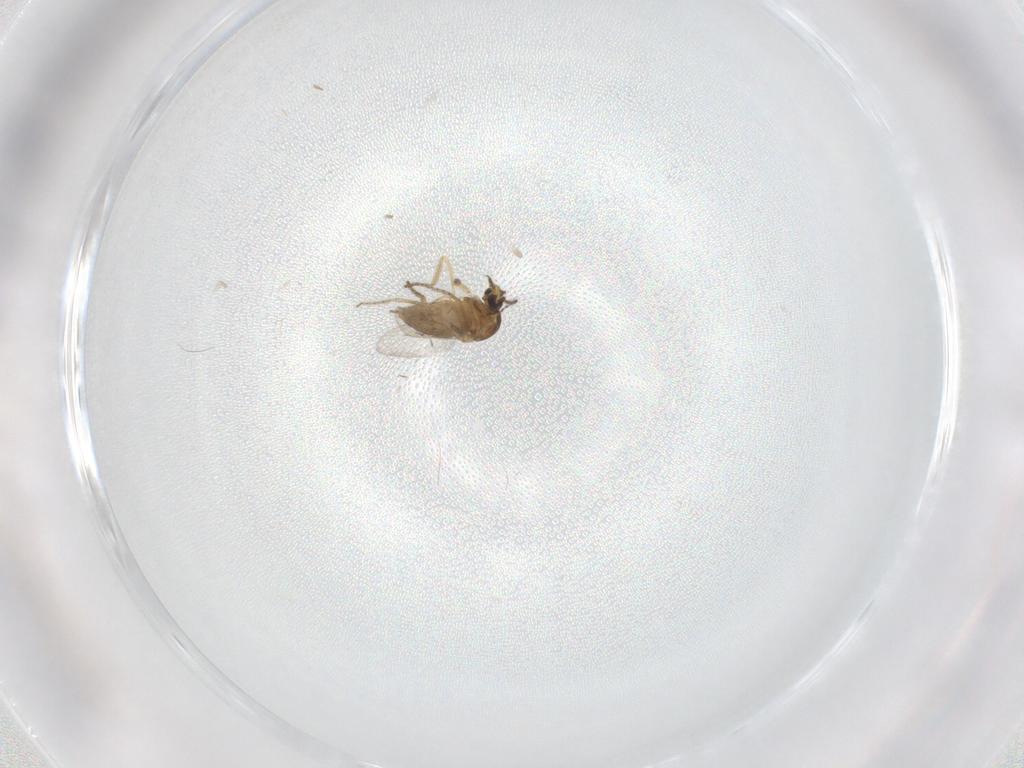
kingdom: Animalia
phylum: Arthropoda
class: Insecta
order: Diptera
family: Ceratopogonidae
